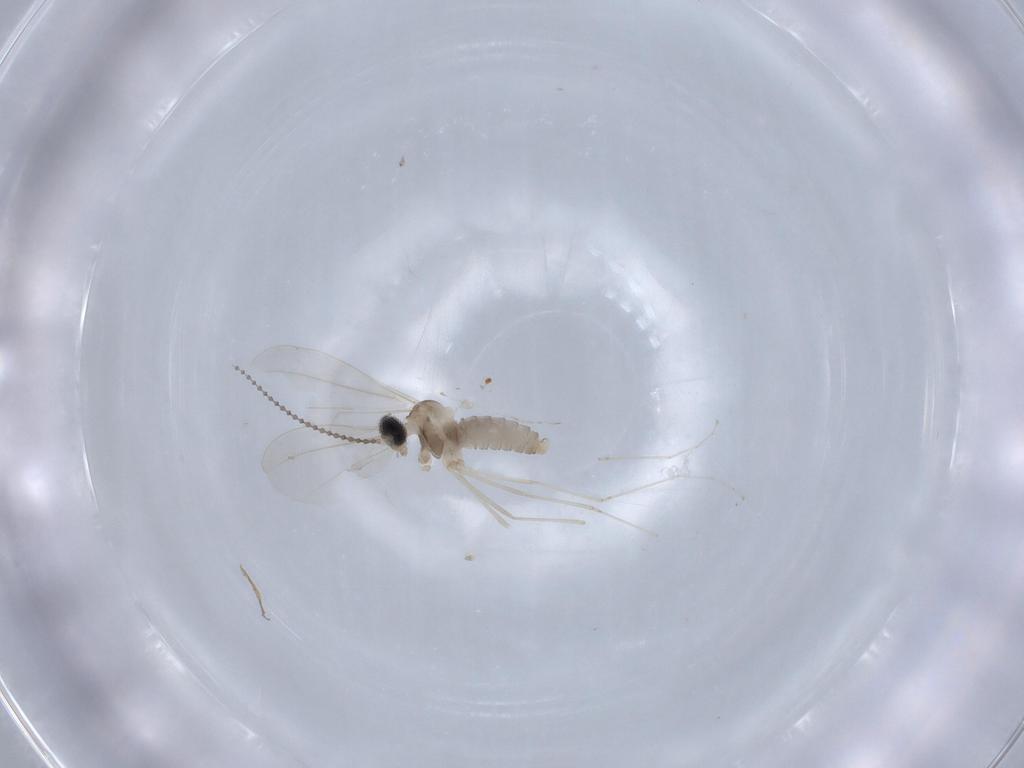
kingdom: Animalia
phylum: Arthropoda
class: Insecta
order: Diptera
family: Cecidomyiidae
